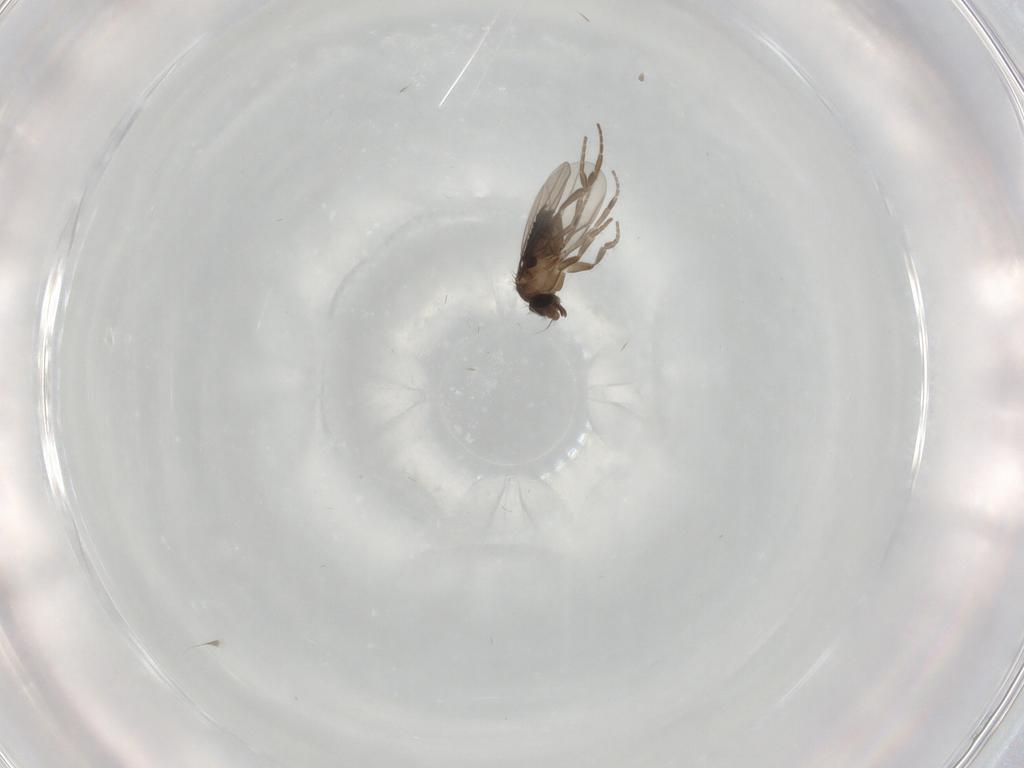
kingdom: Animalia
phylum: Arthropoda
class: Insecta
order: Diptera
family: Phoridae
